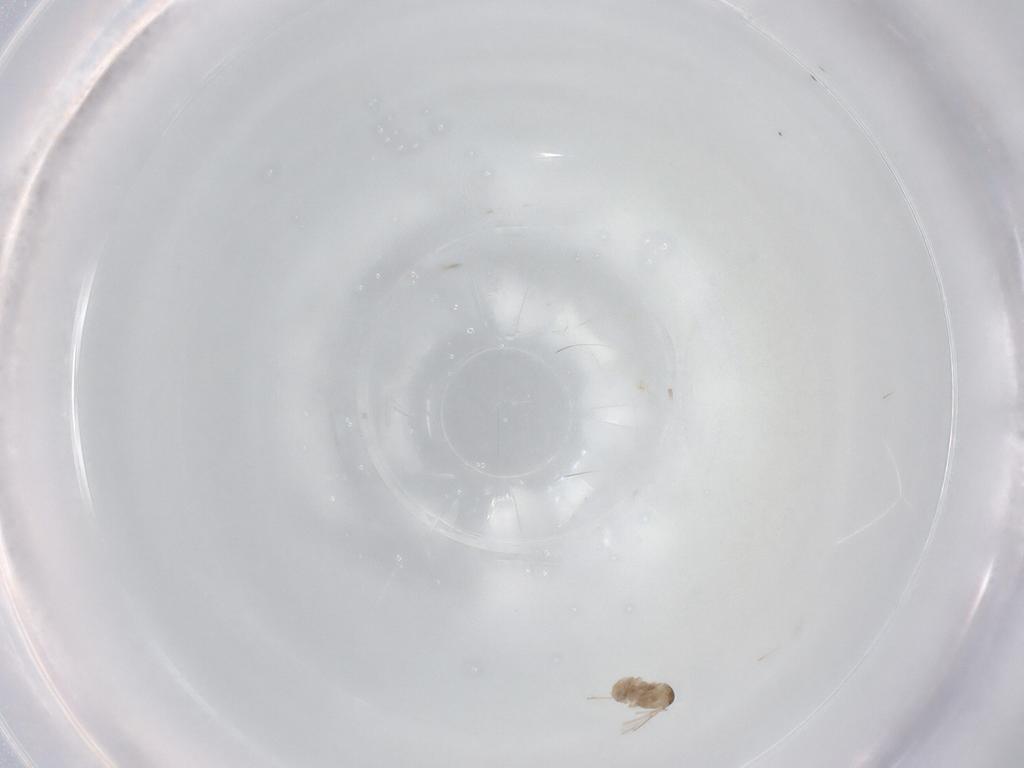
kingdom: Animalia
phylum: Arthropoda
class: Insecta
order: Diptera
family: Cecidomyiidae
